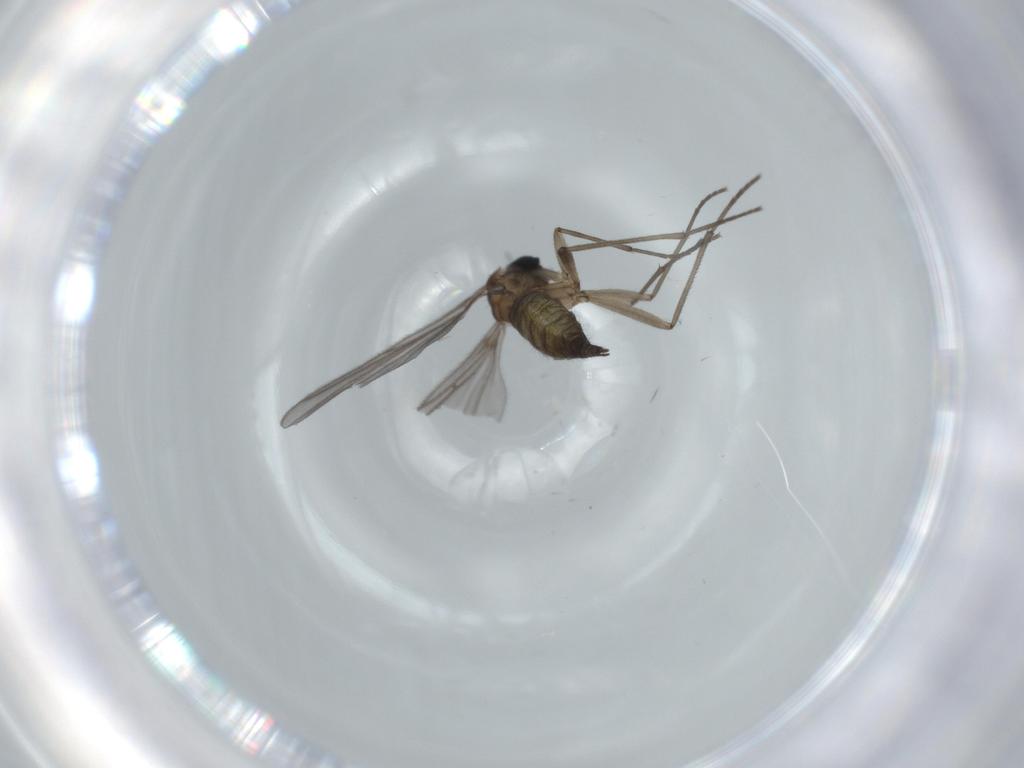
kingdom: Animalia
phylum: Arthropoda
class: Insecta
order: Diptera
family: Sciaridae
